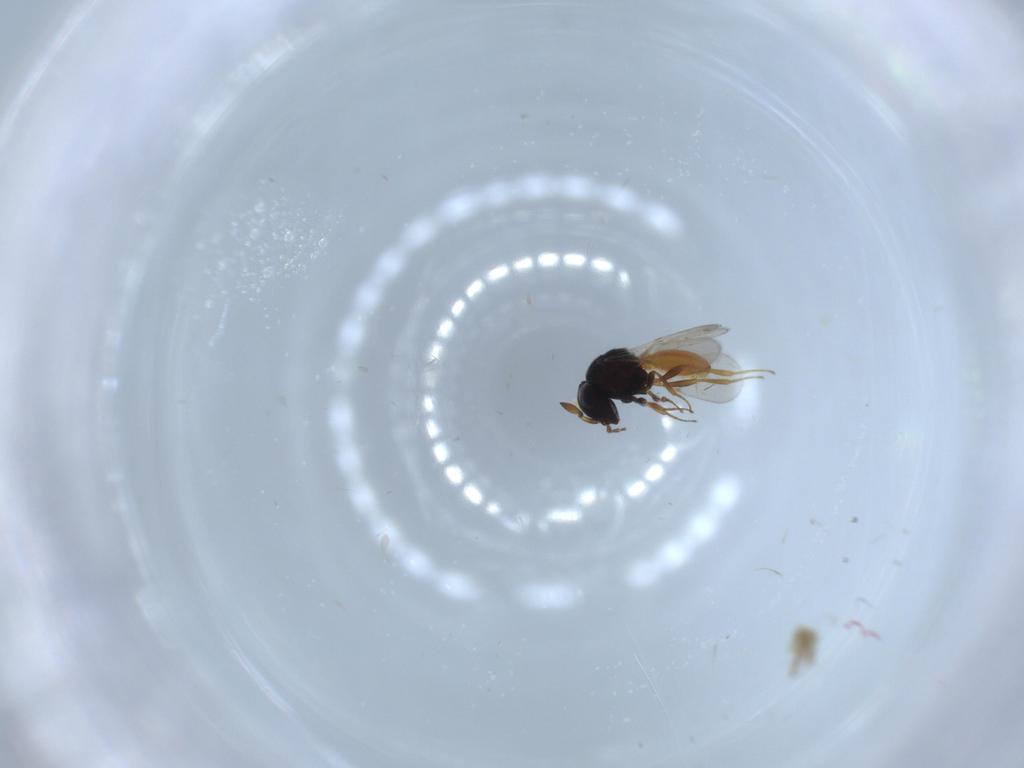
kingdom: Animalia
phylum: Arthropoda
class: Insecta
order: Hymenoptera
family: Scelionidae
